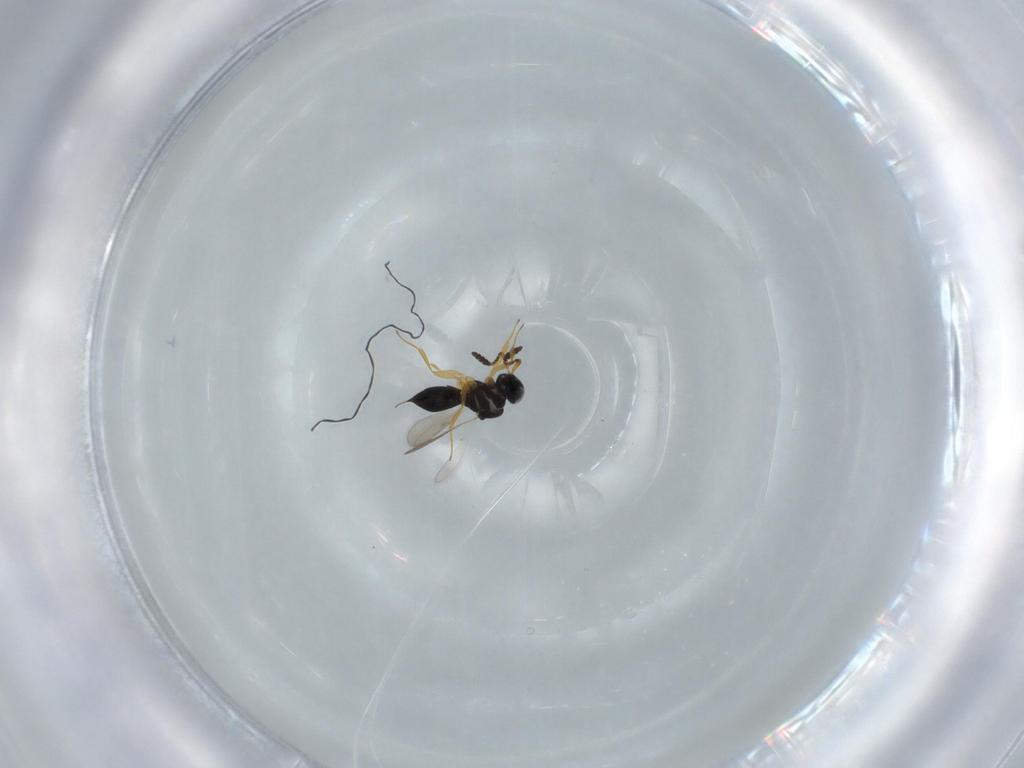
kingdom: Animalia
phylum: Arthropoda
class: Insecta
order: Hymenoptera
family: Scelionidae
